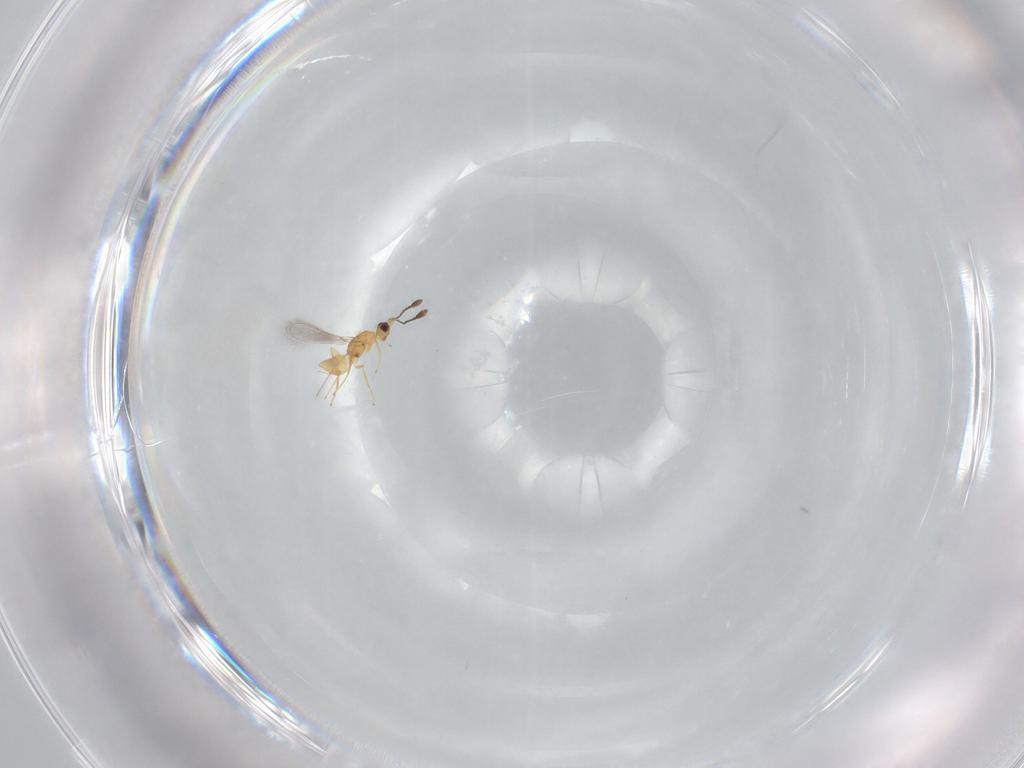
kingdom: Animalia
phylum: Arthropoda
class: Insecta
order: Hymenoptera
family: Mymaridae
